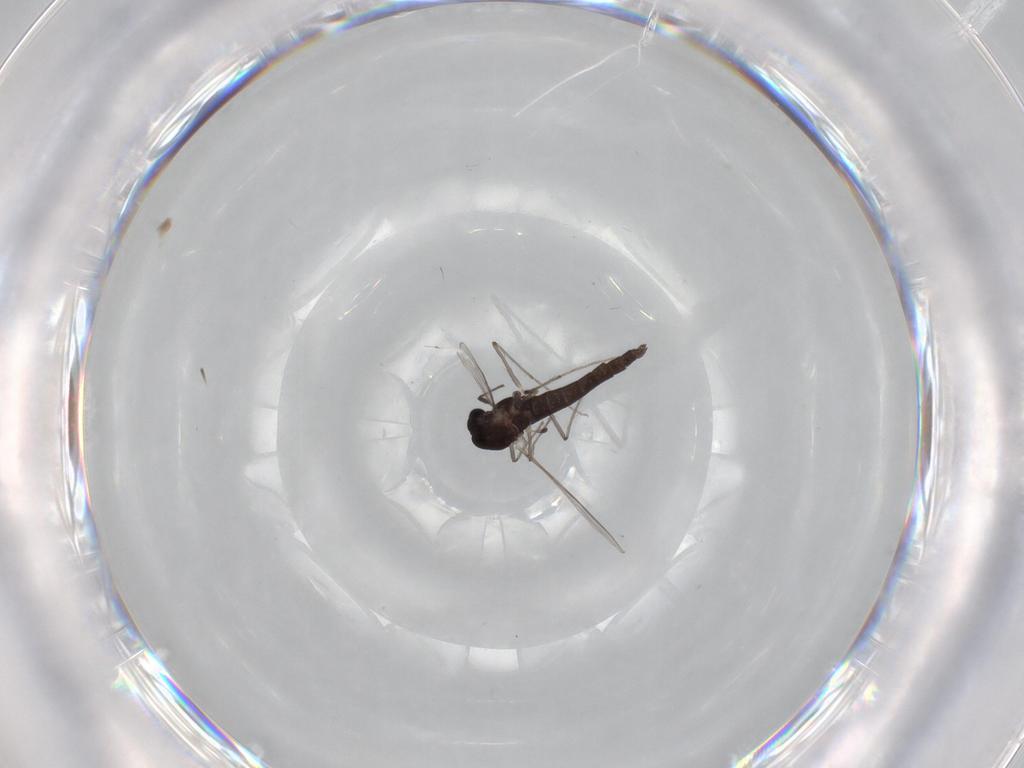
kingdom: Animalia
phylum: Arthropoda
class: Insecta
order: Diptera
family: Chironomidae
